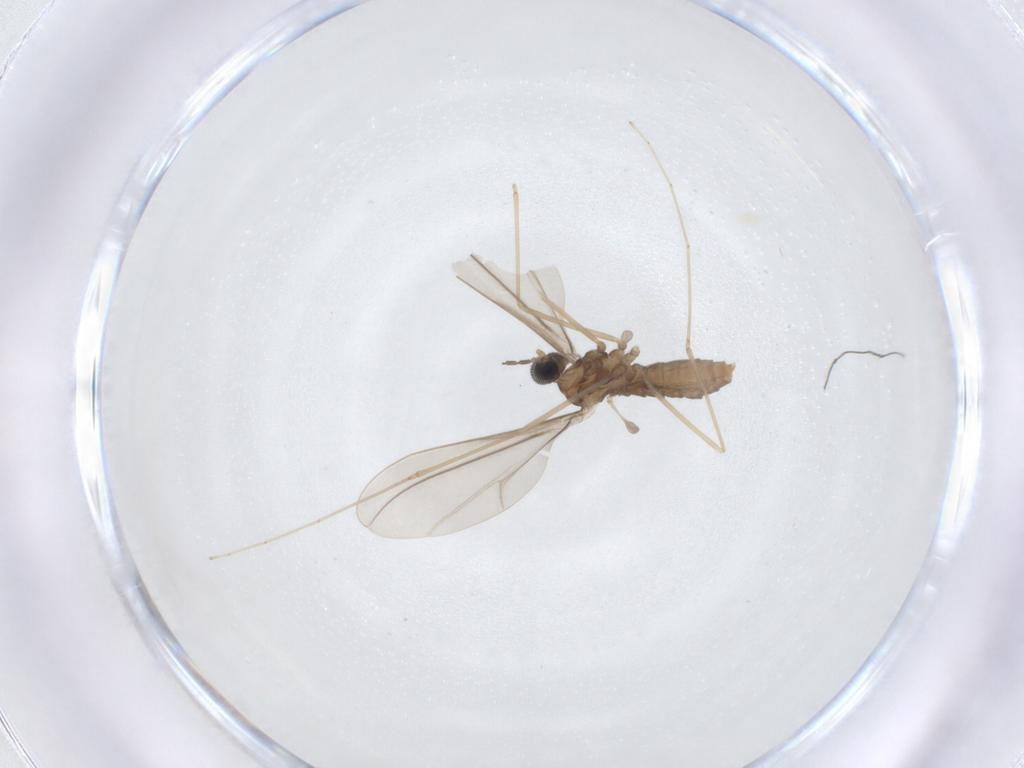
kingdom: Animalia
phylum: Arthropoda
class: Insecta
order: Diptera
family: Cecidomyiidae
